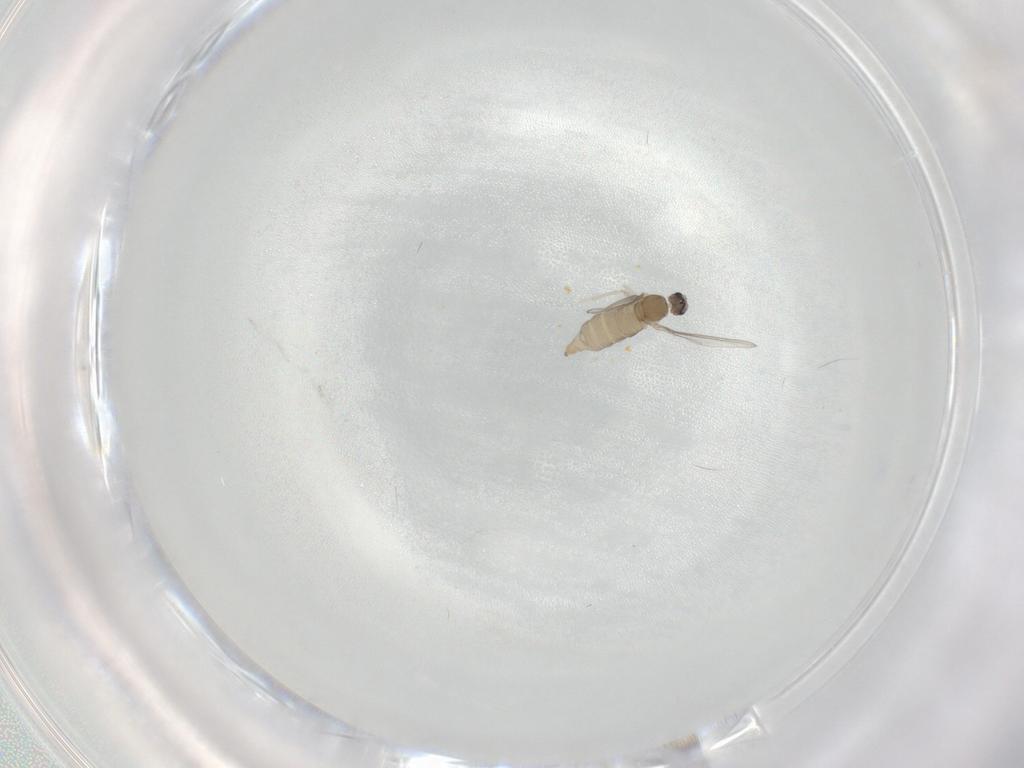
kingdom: Animalia
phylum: Arthropoda
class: Insecta
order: Diptera
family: Cecidomyiidae
